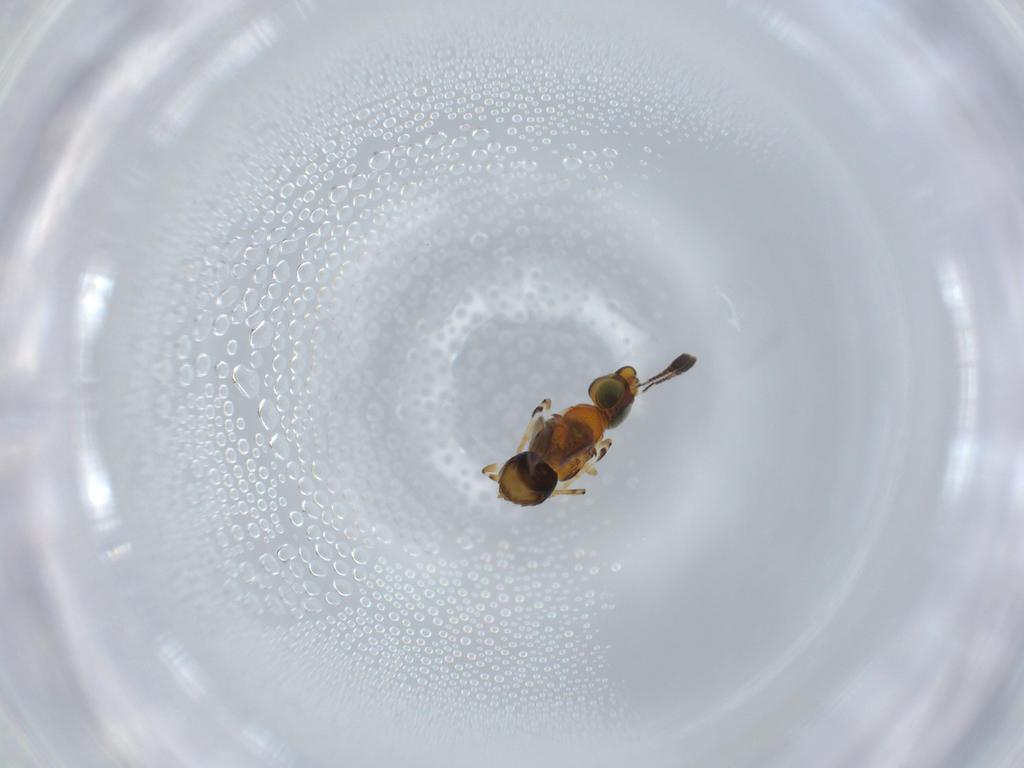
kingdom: Animalia
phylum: Arthropoda
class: Insecta
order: Hymenoptera
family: Encyrtidae
